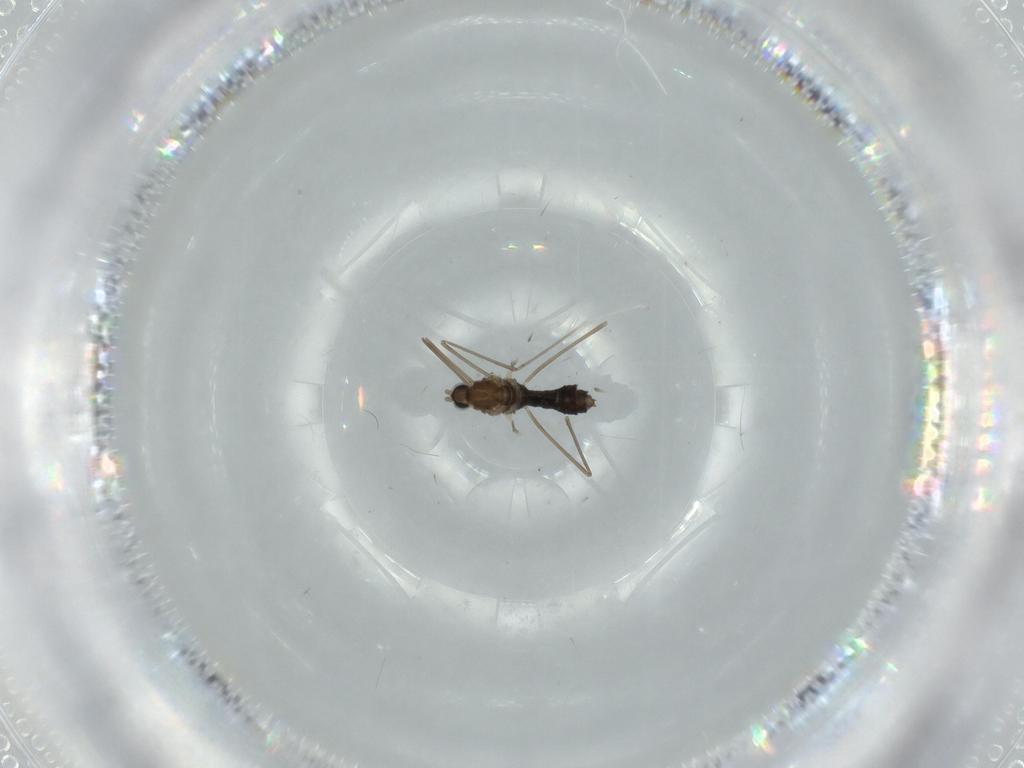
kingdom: Animalia
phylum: Arthropoda
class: Insecta
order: Diptera
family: Cecidomyiidae
